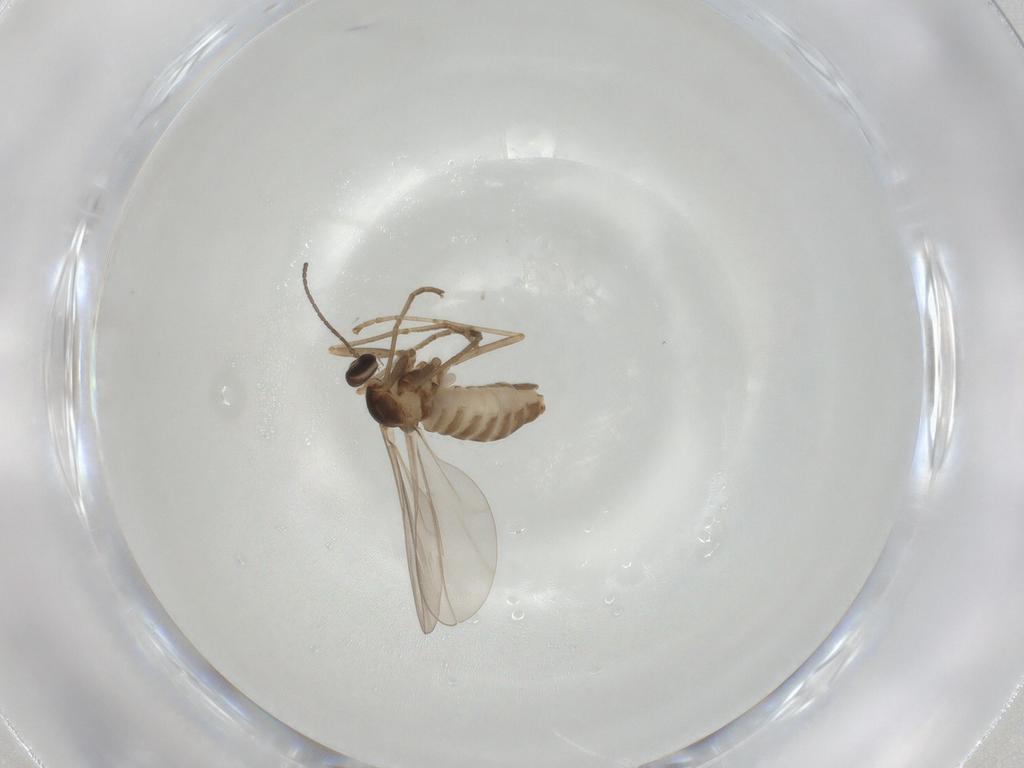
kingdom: Animalia
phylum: Arthropoda
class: Insecta
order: Diptera
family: Cecidomyiidae
